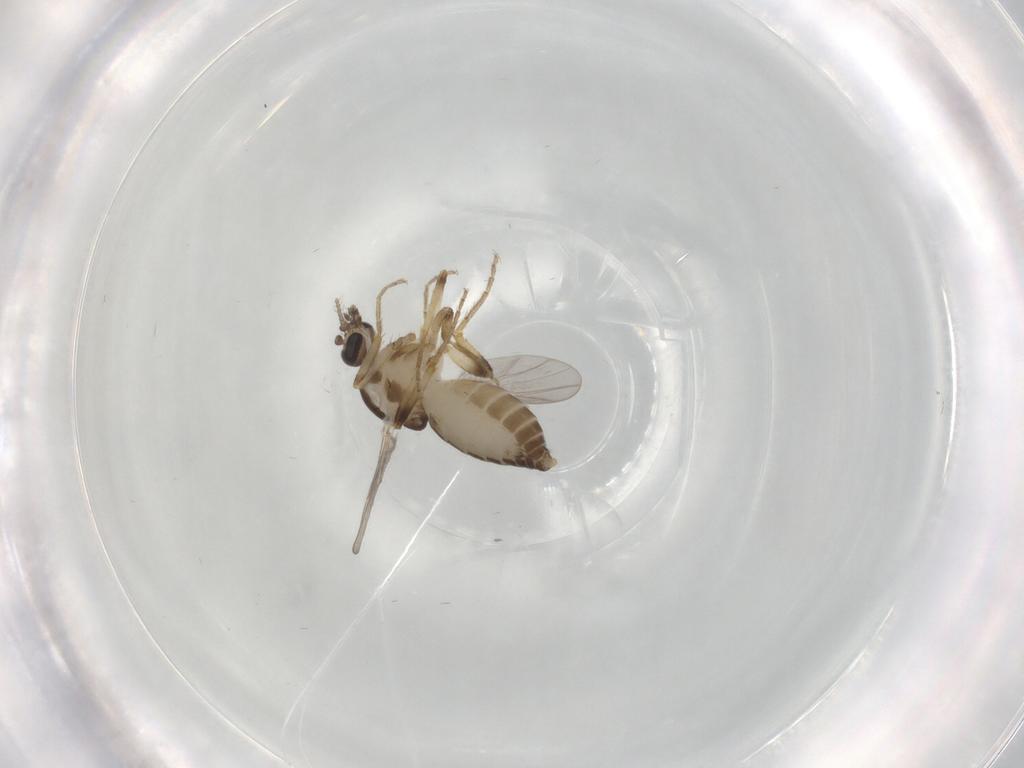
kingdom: Animalia
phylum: Arthropoda
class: Insecta
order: Diptera
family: Ceratopogonidae
